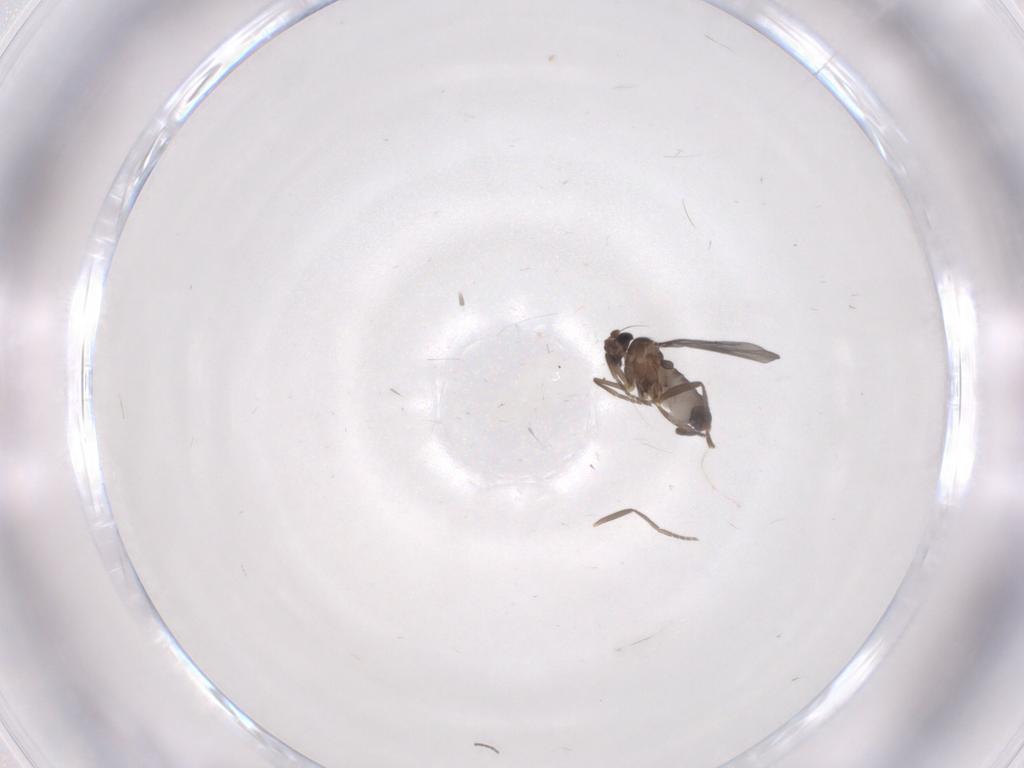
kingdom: Animalia
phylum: Arthropoda
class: Insecta
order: Diptera
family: Phoridae
